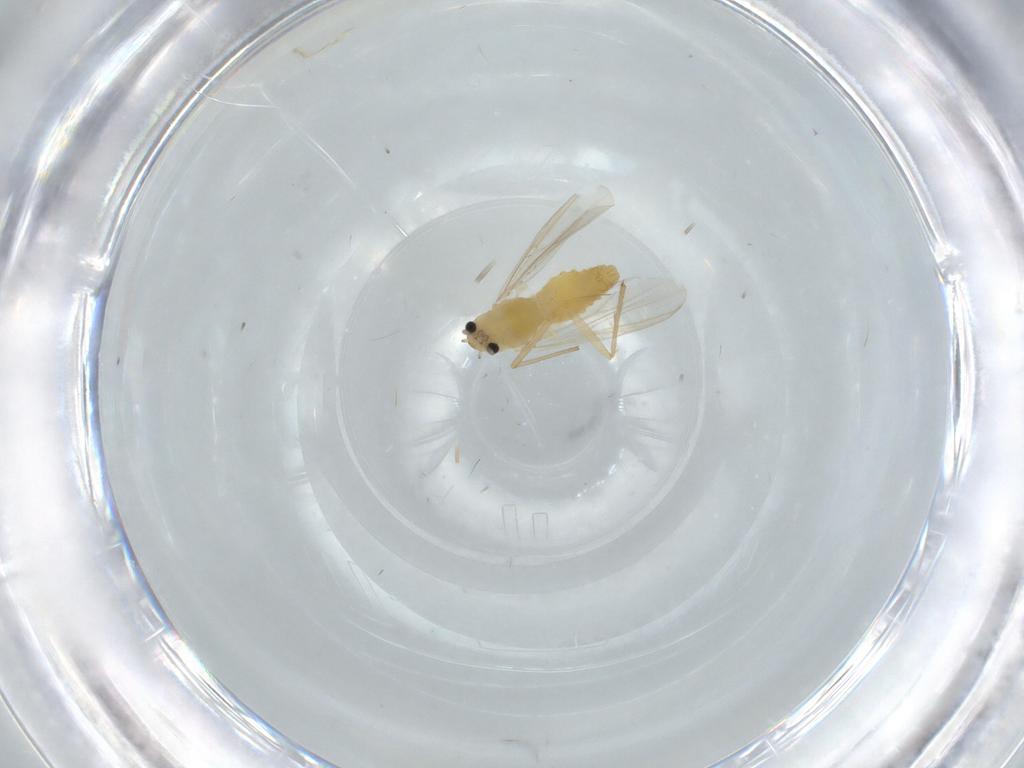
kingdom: Animalia
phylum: Arthropoda
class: Insecta
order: Diptera
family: Chironomidae
